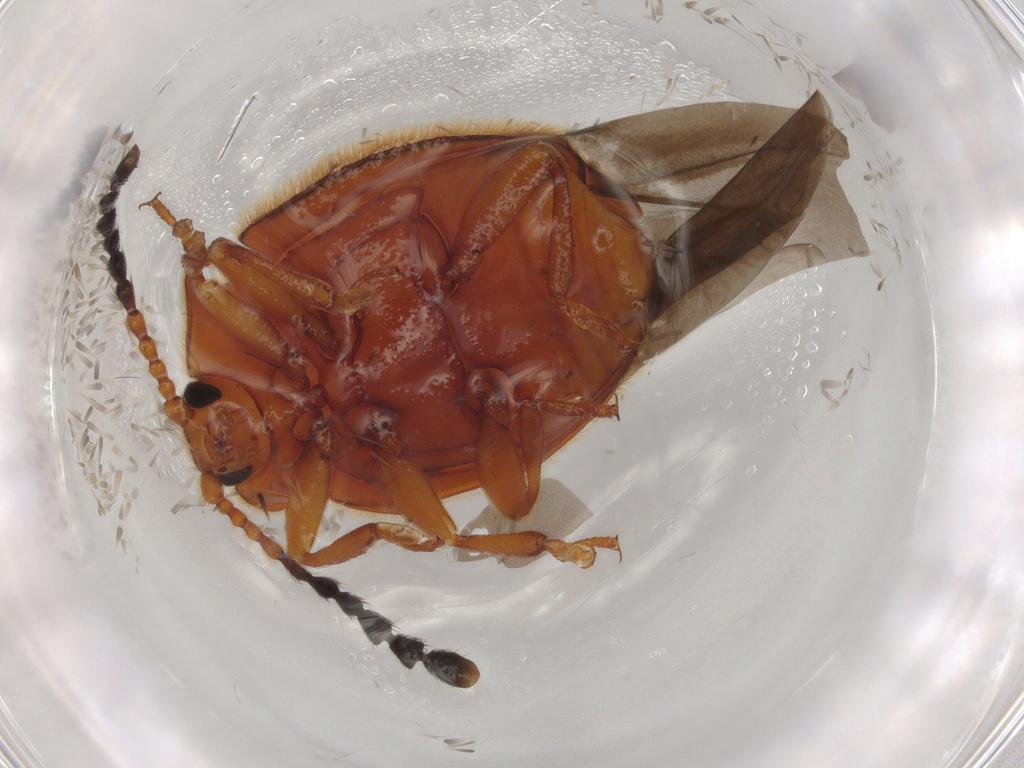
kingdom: Animalia
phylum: Arthropoda
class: Insecta
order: Coleoptera
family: Endomychidae
